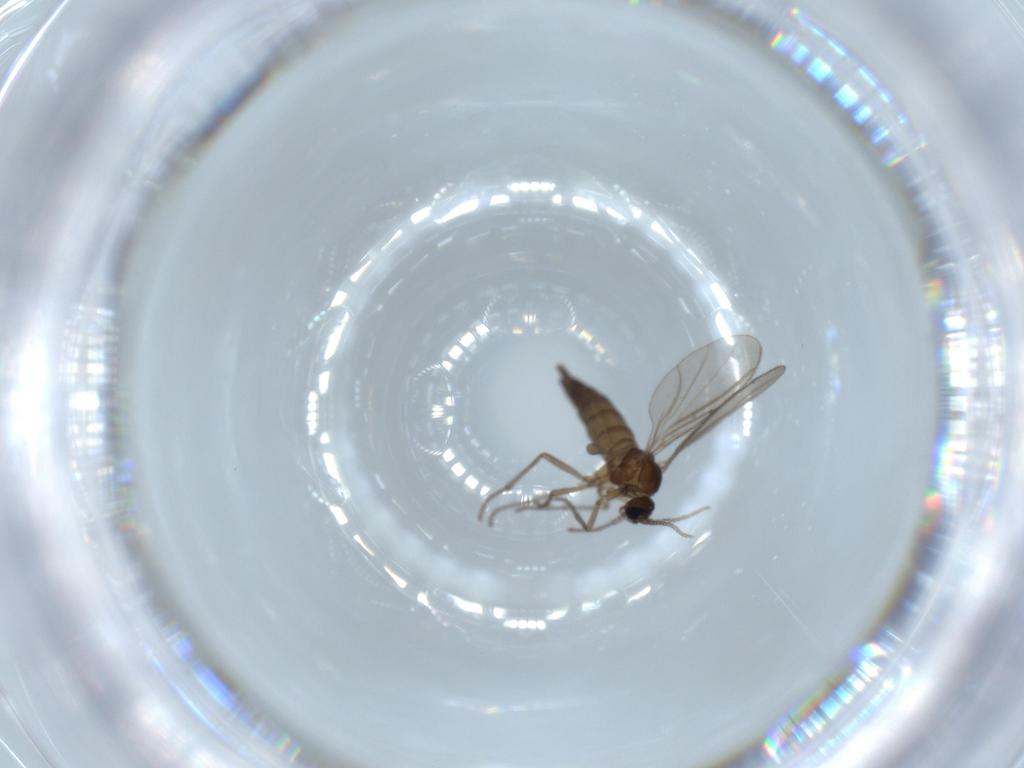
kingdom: Animalia
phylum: Arthropoda
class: Insecta
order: Diptera
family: Sciaridae
